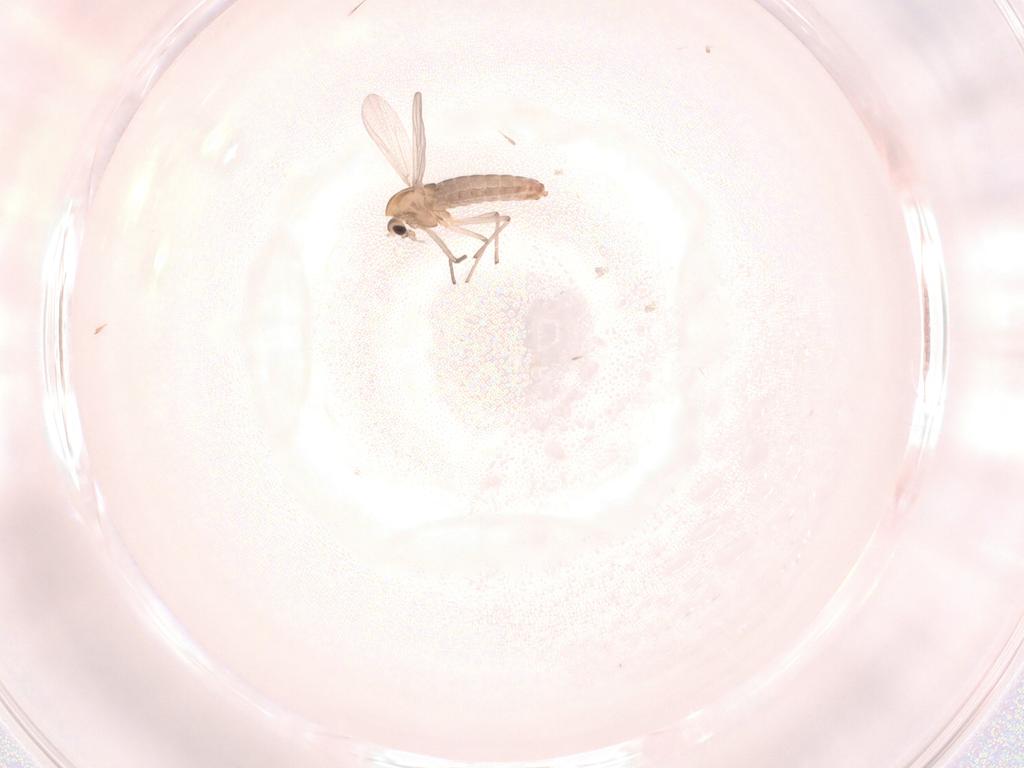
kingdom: Animalia
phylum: Arthropoda
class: Insecta
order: Diptera
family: Chironomidae
